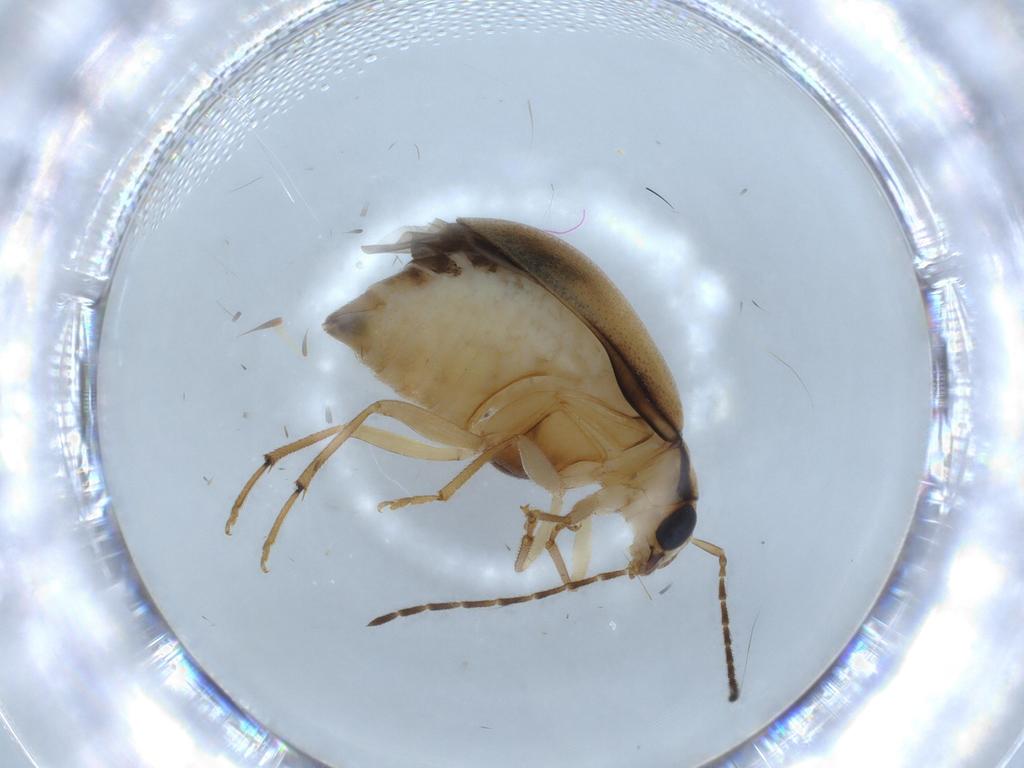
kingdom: Animalia
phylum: Arthropoda
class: Insecta
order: Coleoptera
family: Chrysomelidae
